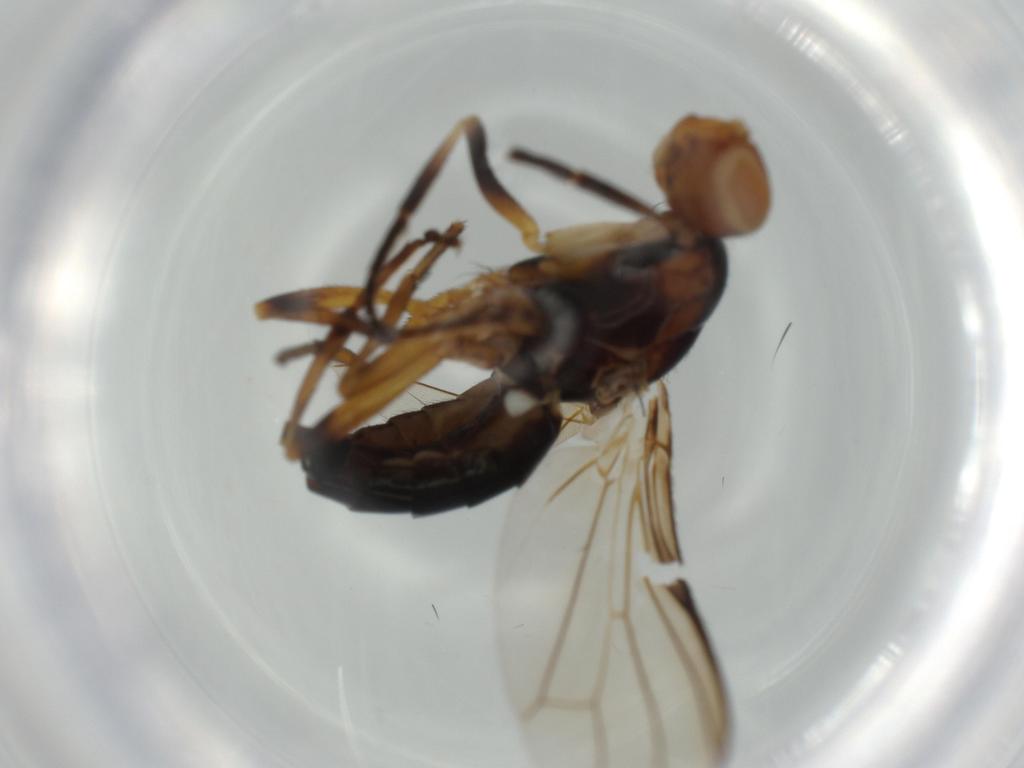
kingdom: Animalia
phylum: Arthropoda
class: Insecta
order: Diptera
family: Piophilidae
